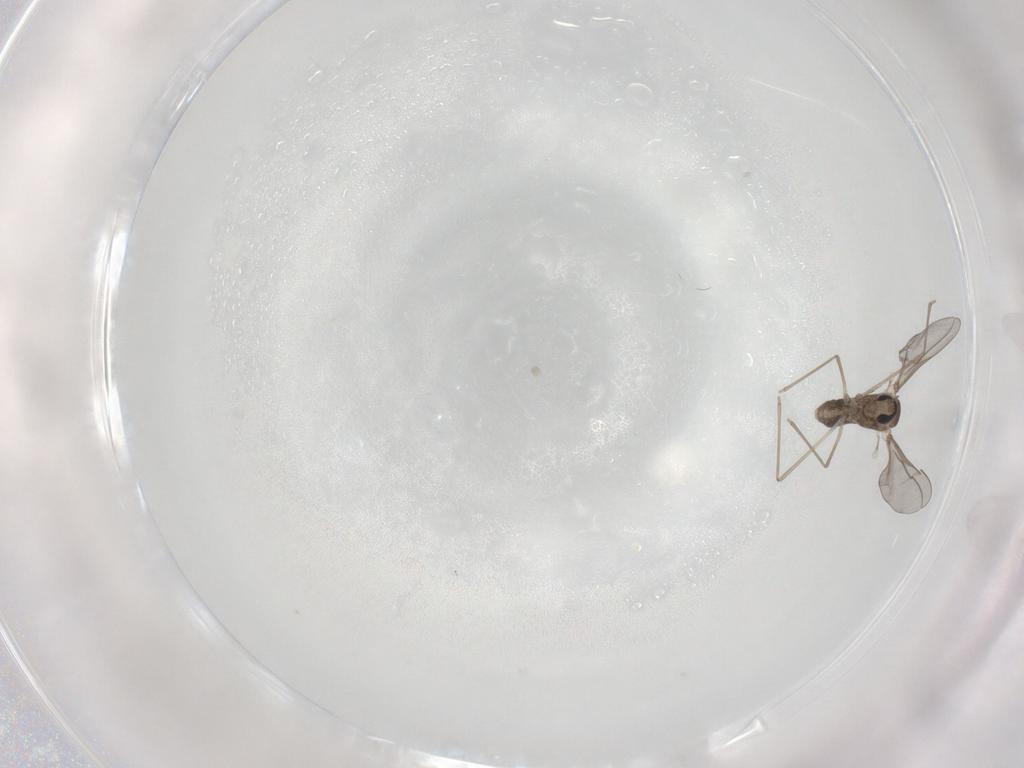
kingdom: Animalia
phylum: Arthropoda
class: Insecta
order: Diptera
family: Cecidomyiidae
